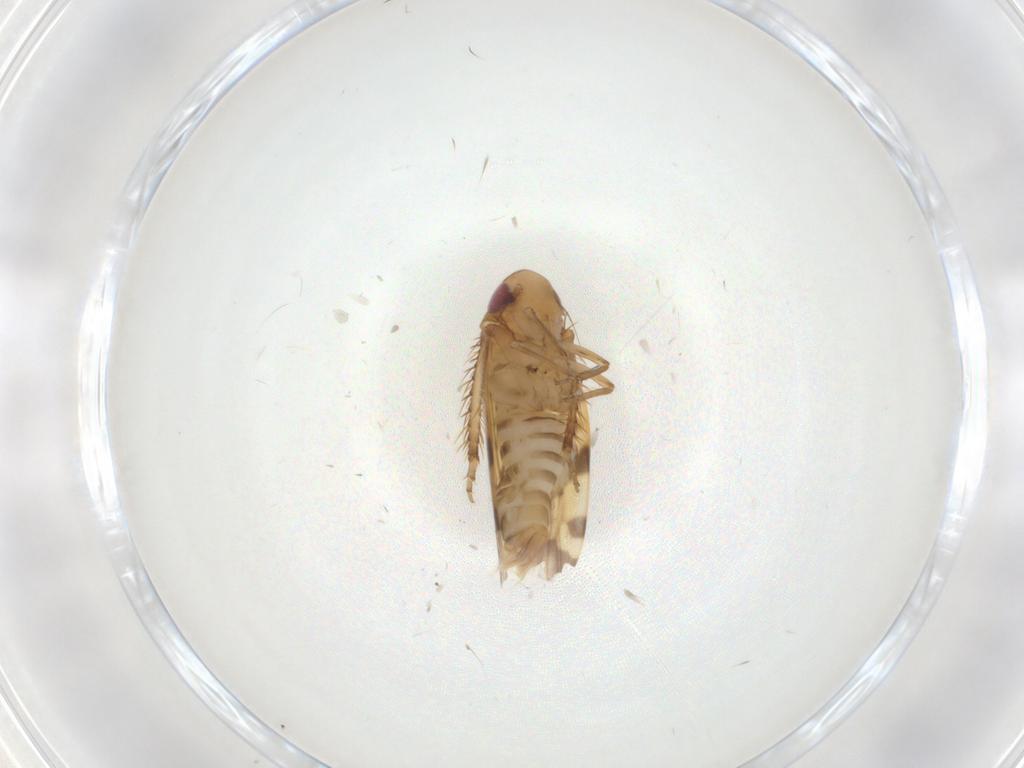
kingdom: Animalia
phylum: Arthropoda
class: Insecta
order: Hemiptera
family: Cicadellidae
